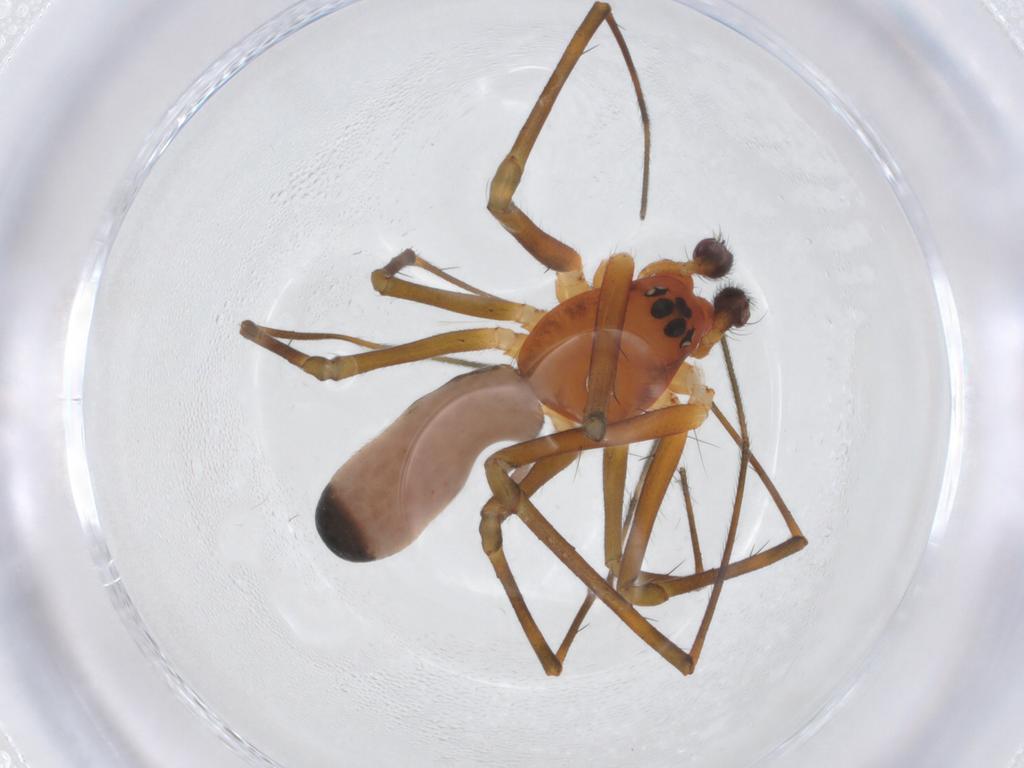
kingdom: Animalia
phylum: Arthropoda
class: Arachnida
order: Araneae
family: Linyphiidae
